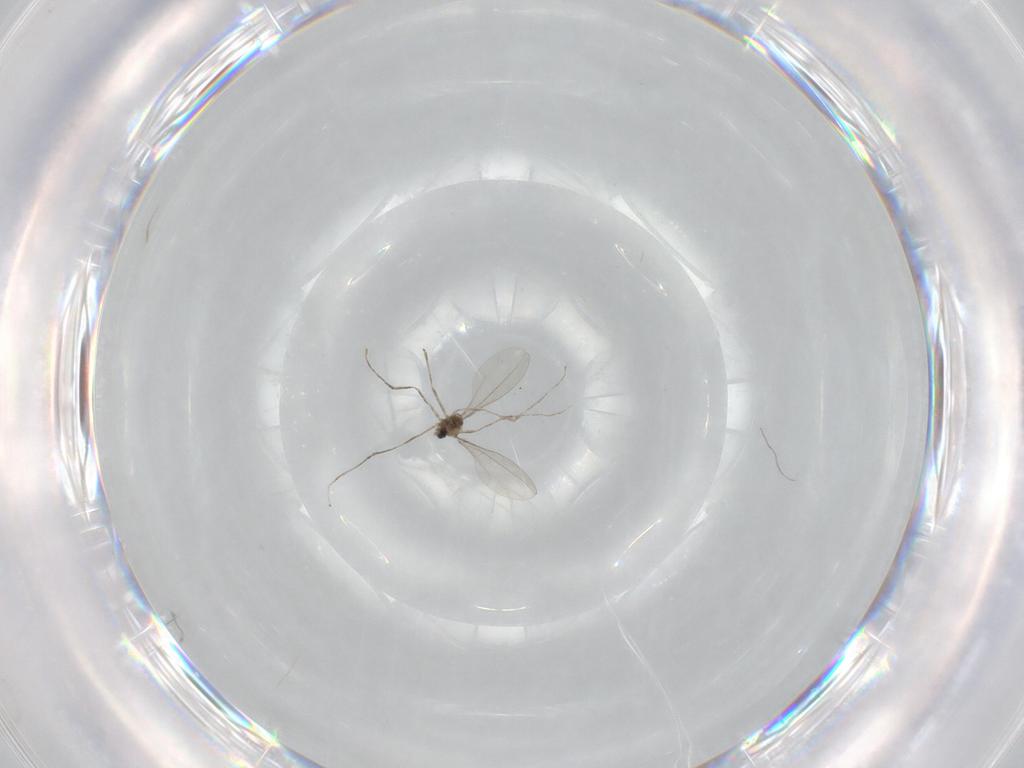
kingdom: Animalia
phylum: Arthropoda
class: Insecta
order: Diptera
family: Cecidomyiidae
